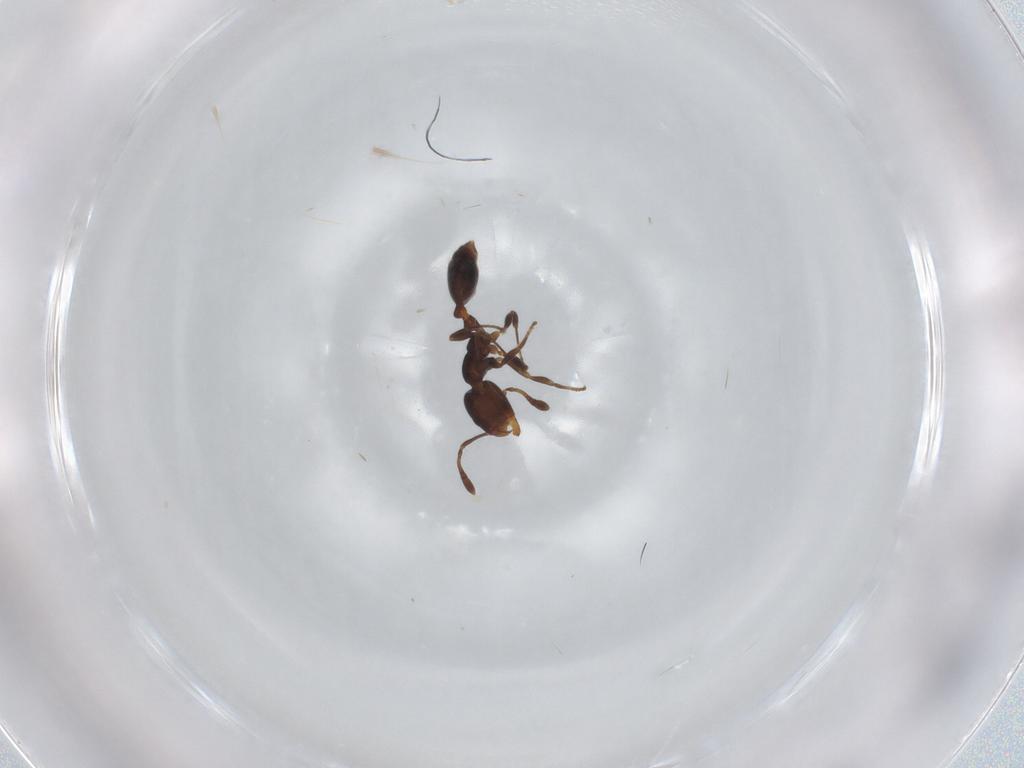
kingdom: Animalia
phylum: Arthropoda
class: Insecta
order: Hymenoptera
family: Formicidae
